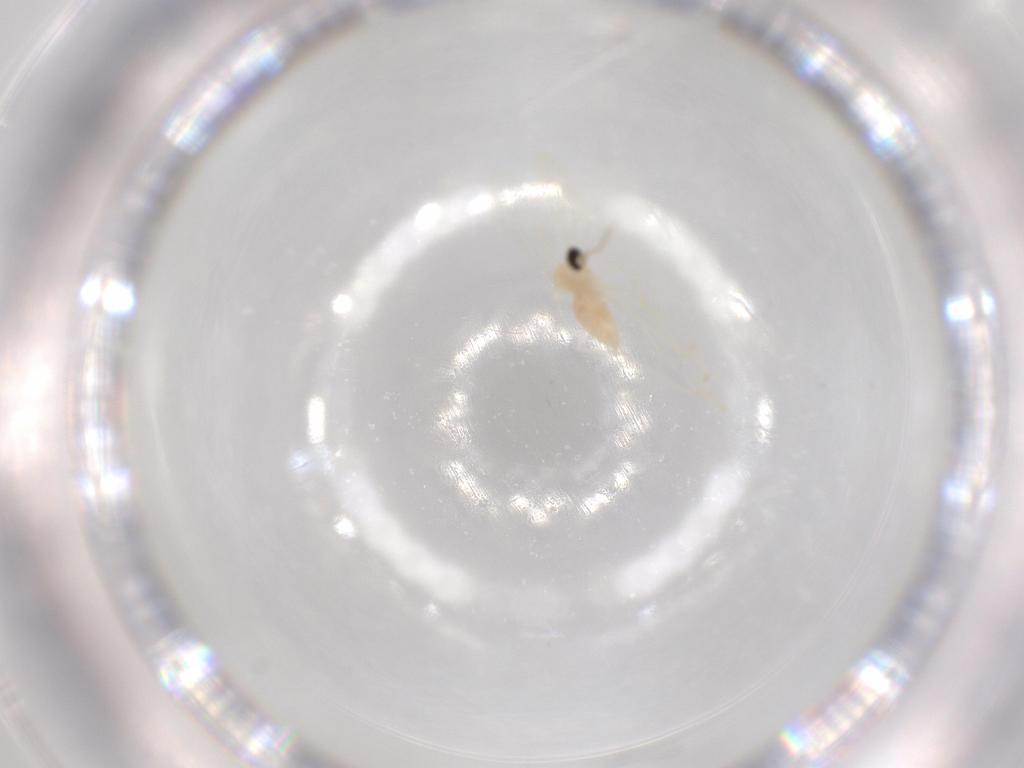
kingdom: Animalia
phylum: Arthropoda
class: Insecta
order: Diptera
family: Cecidomyiidae
